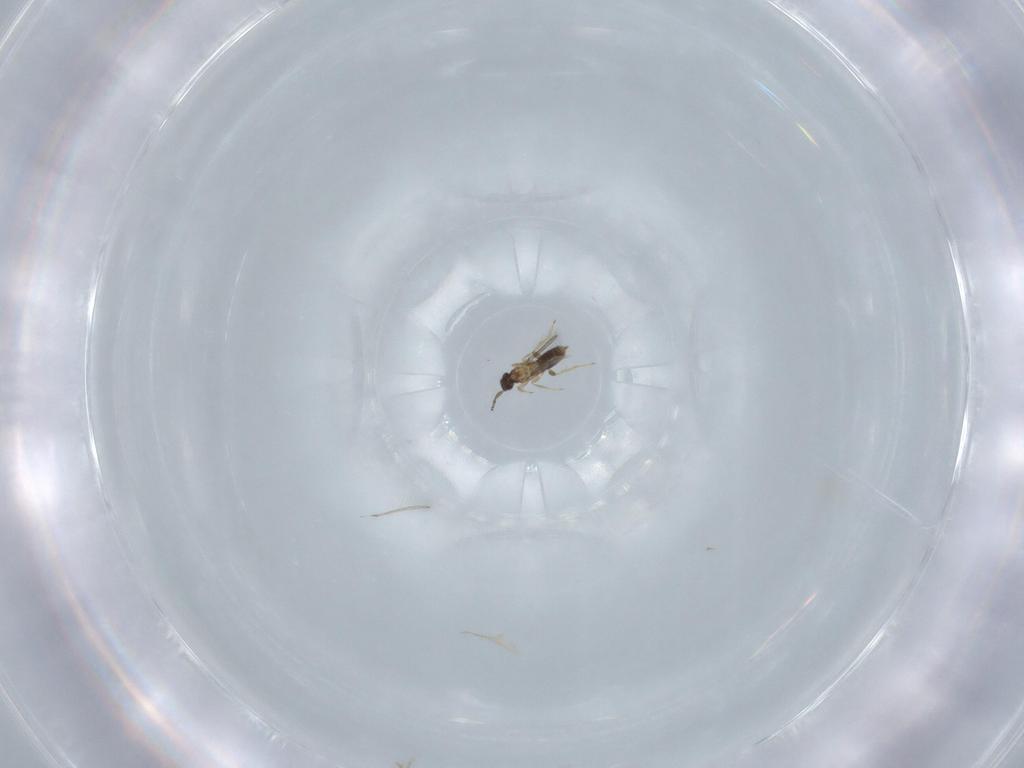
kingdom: Animalia
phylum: Arthropoda
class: Insecta
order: Hymenoptera
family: Mymaridae
